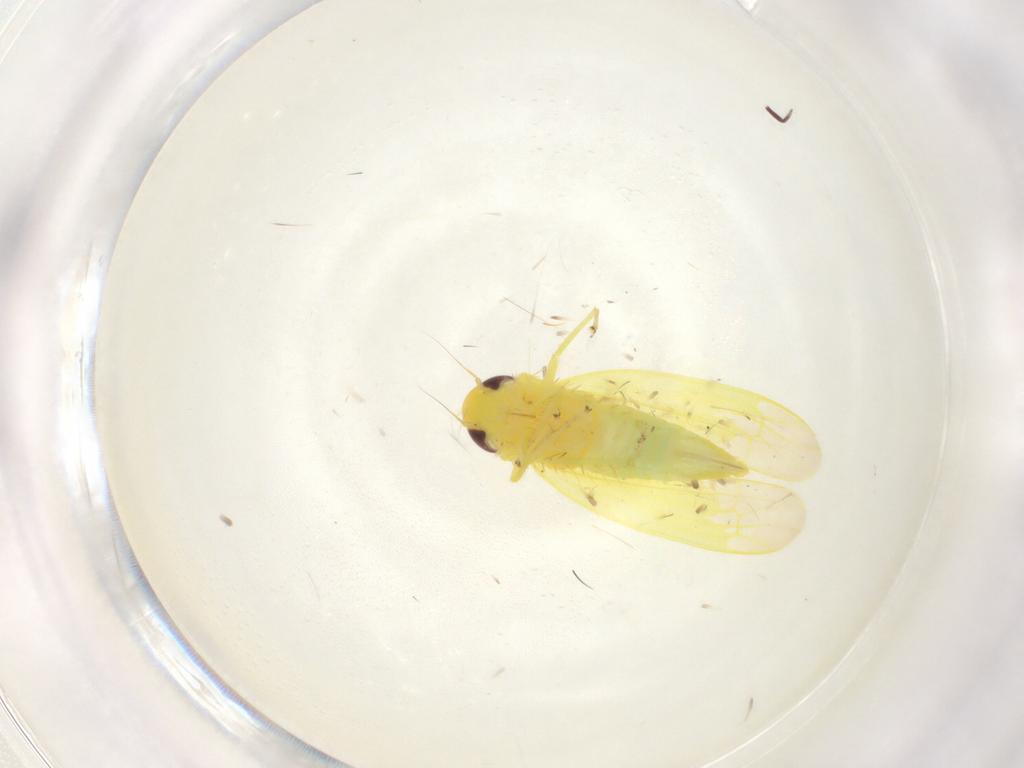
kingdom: Animalia
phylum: Arthropoda
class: Insecta
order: Hemiptera
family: Cicadellidae
